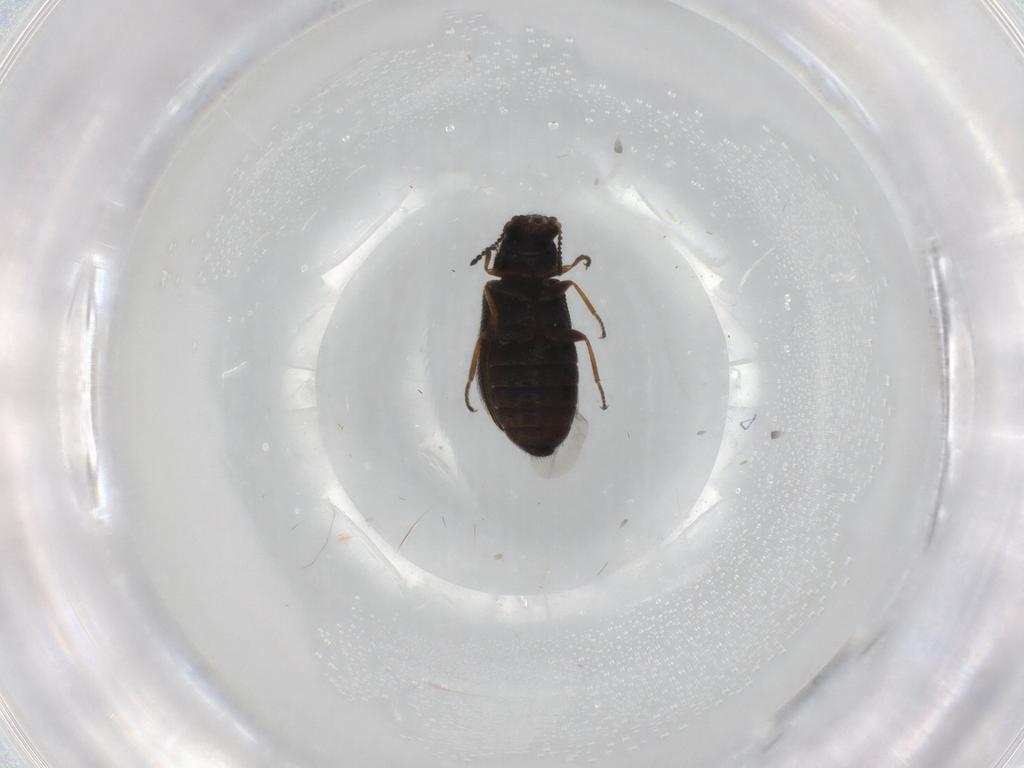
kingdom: Animalia
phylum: Arthropoda
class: Insecta
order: Coleoptera
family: Melyridae
